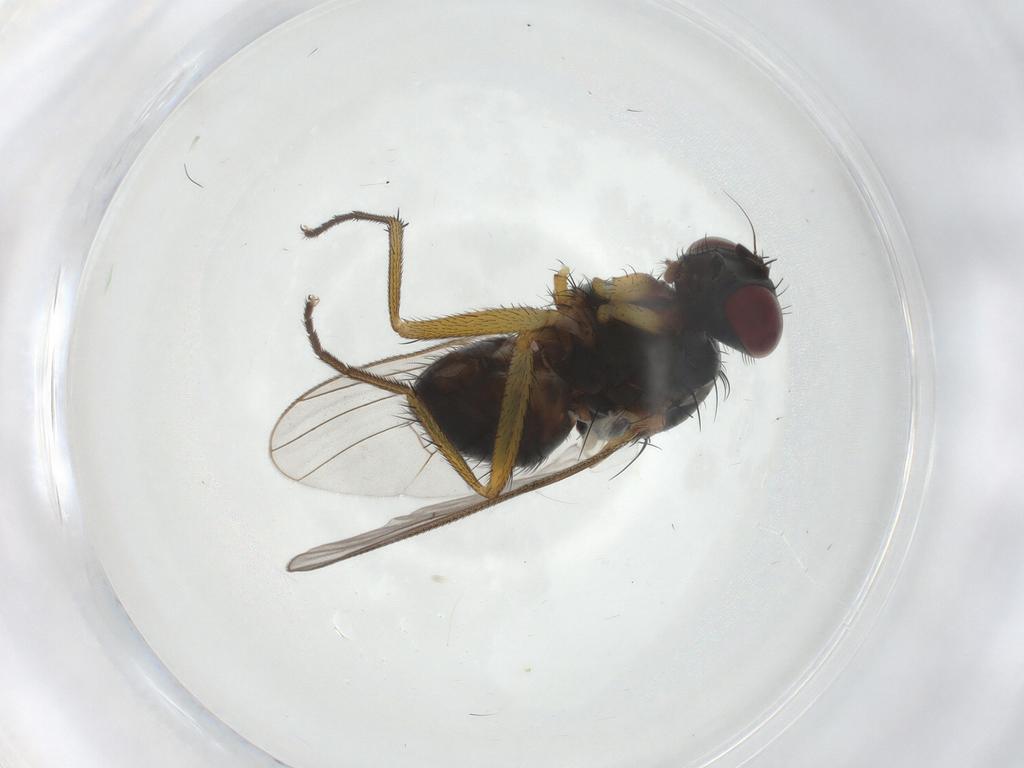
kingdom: Animalia
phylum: Arthropoda
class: Insecta
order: Diptera
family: Muscidae
